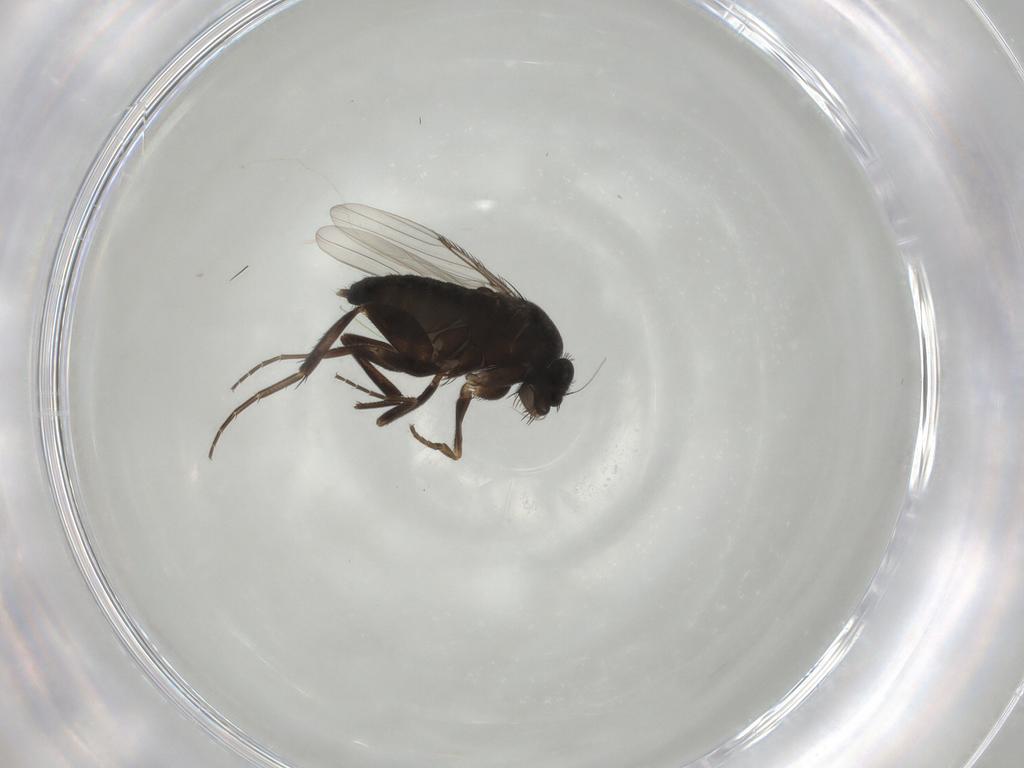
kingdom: Animalia
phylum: Arthropoda
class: Insecta
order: Diptera
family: Phoridae
